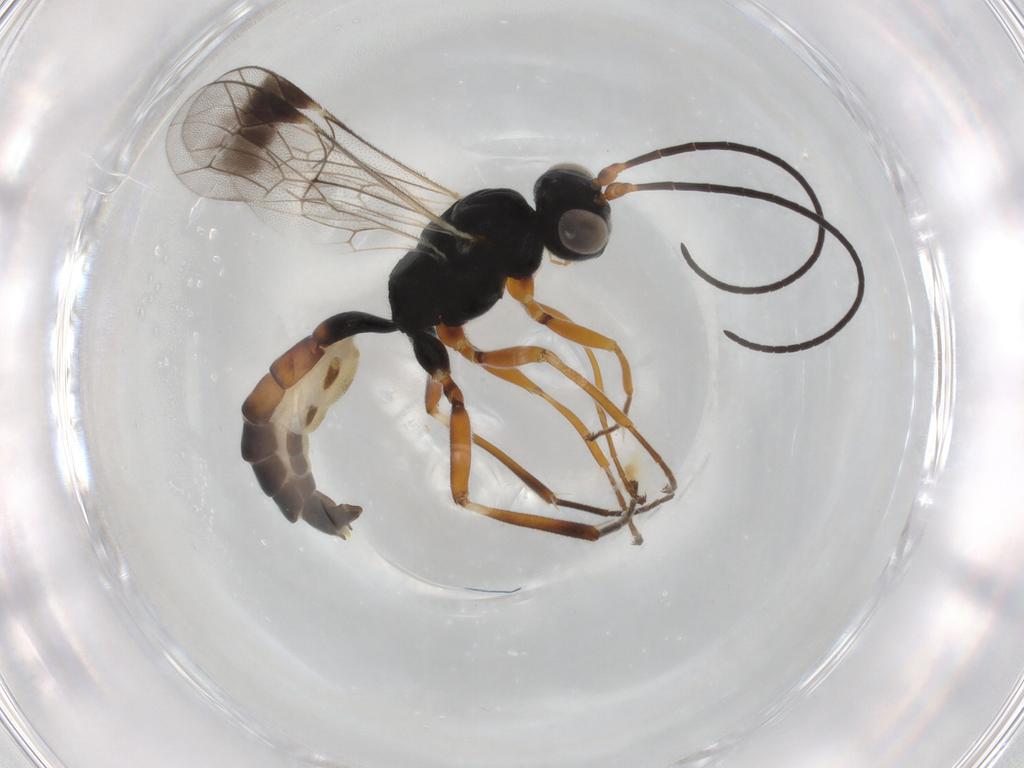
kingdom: Animalia
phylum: Arthropoda
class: Insecta
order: Hymenoptera
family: Ichneumonidae
